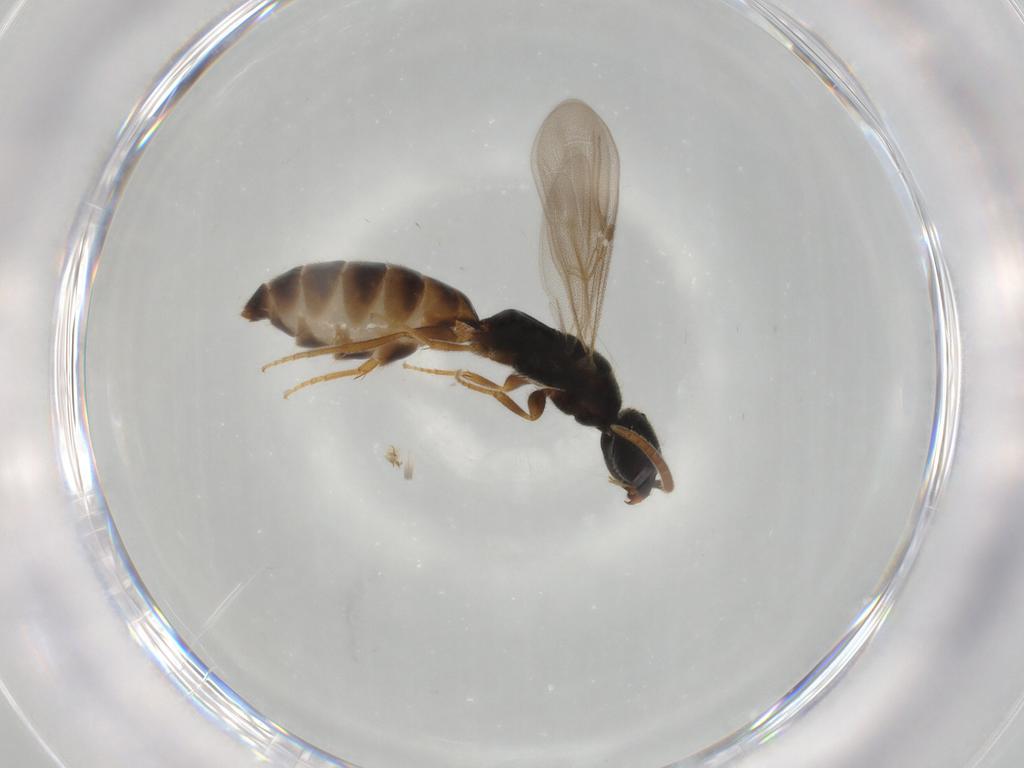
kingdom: Animalia
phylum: Arthropoda
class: Insecta
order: Hymenoptera
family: Bethylidae
